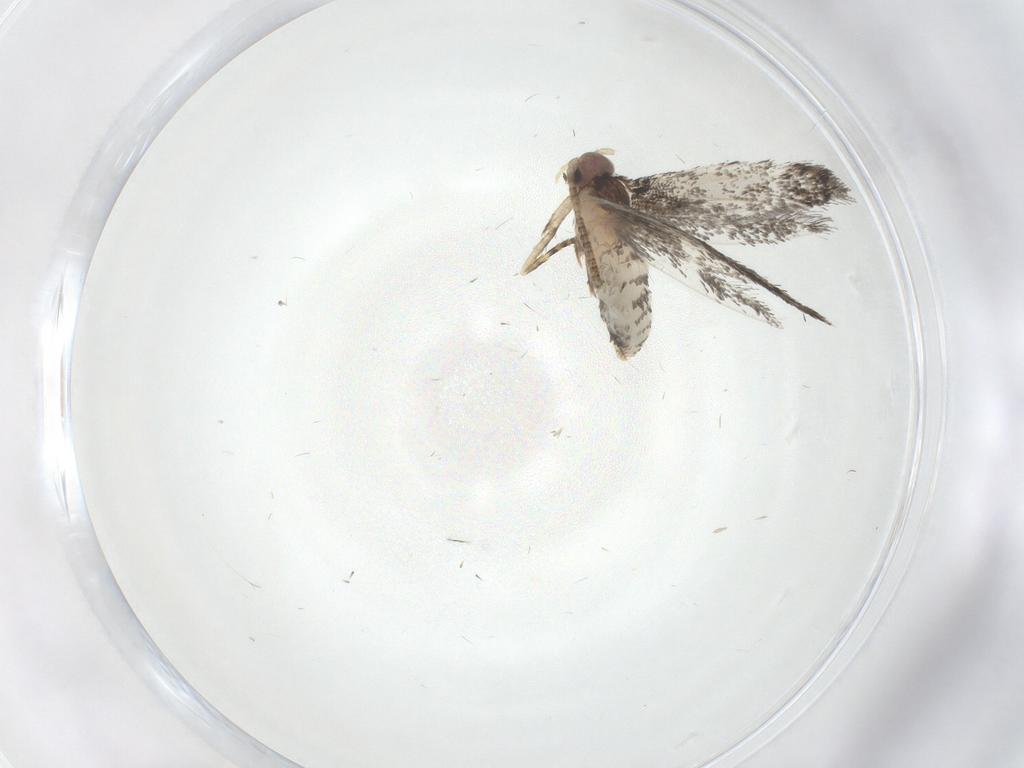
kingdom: Animalia
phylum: Arthropoda
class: Insecta
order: Lepidoptera
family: Tineidae
